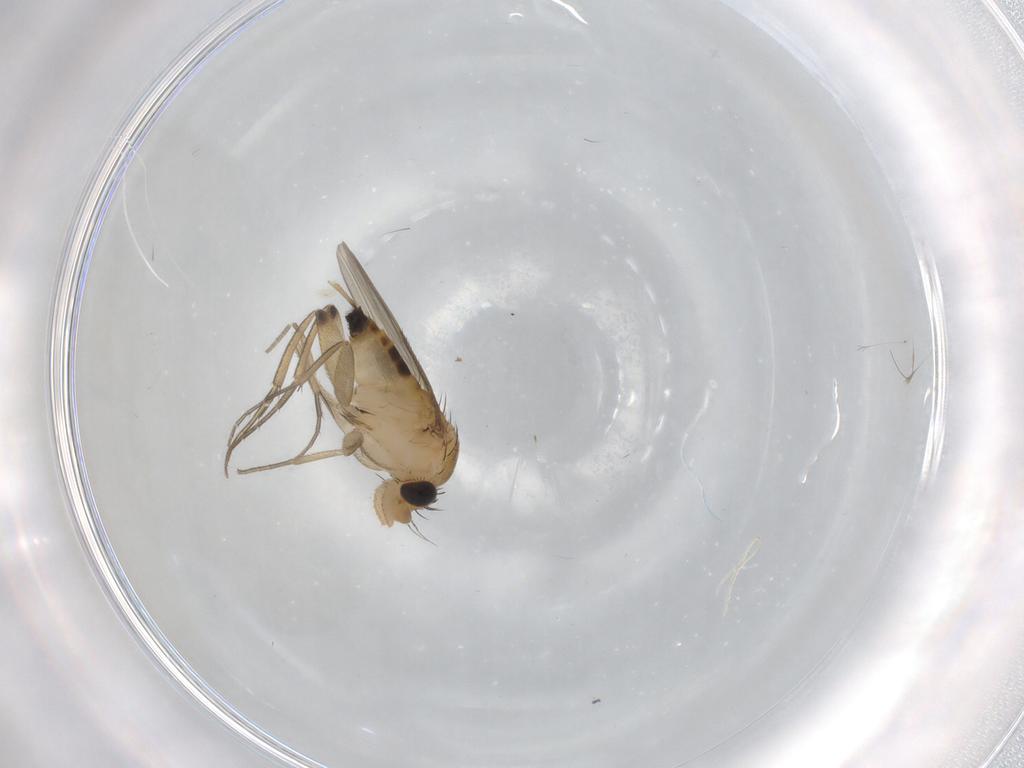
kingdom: Animalia
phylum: Arthropoda
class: Insecta
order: Diptera
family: Phoridae
